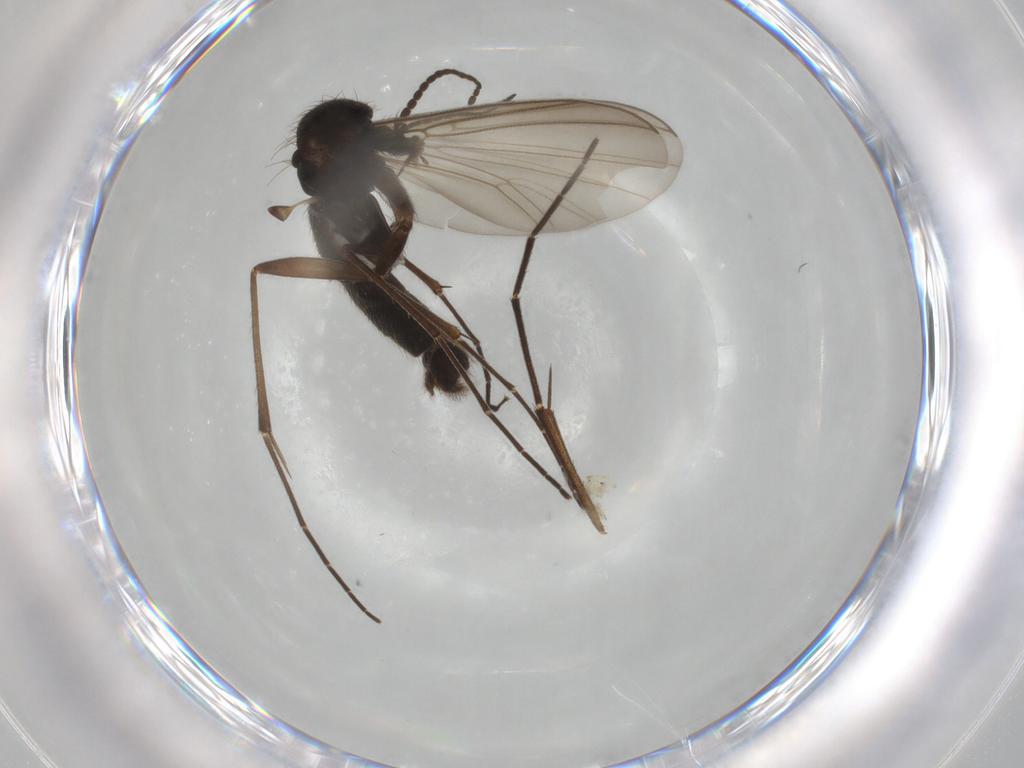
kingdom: Animalia
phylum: Arthropoda
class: Insecta
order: Diptera
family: Mycetophilidae
